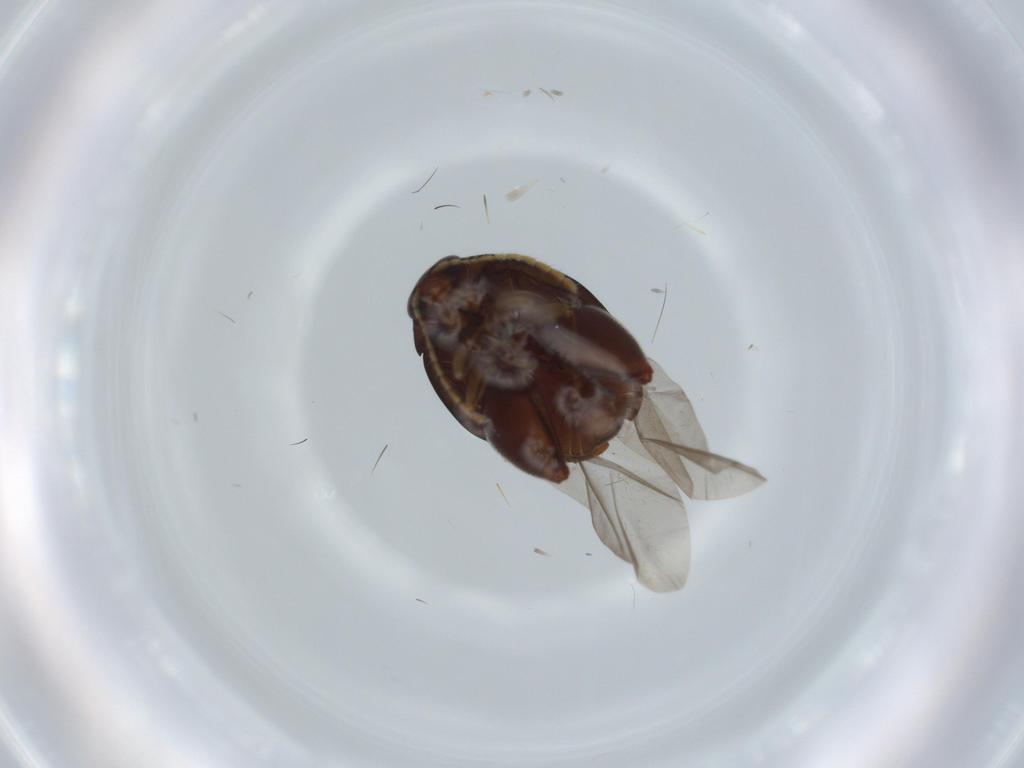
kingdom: Animalia
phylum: Arthropoda
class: Insecta
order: Coleoptera
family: Chrysomelidae
